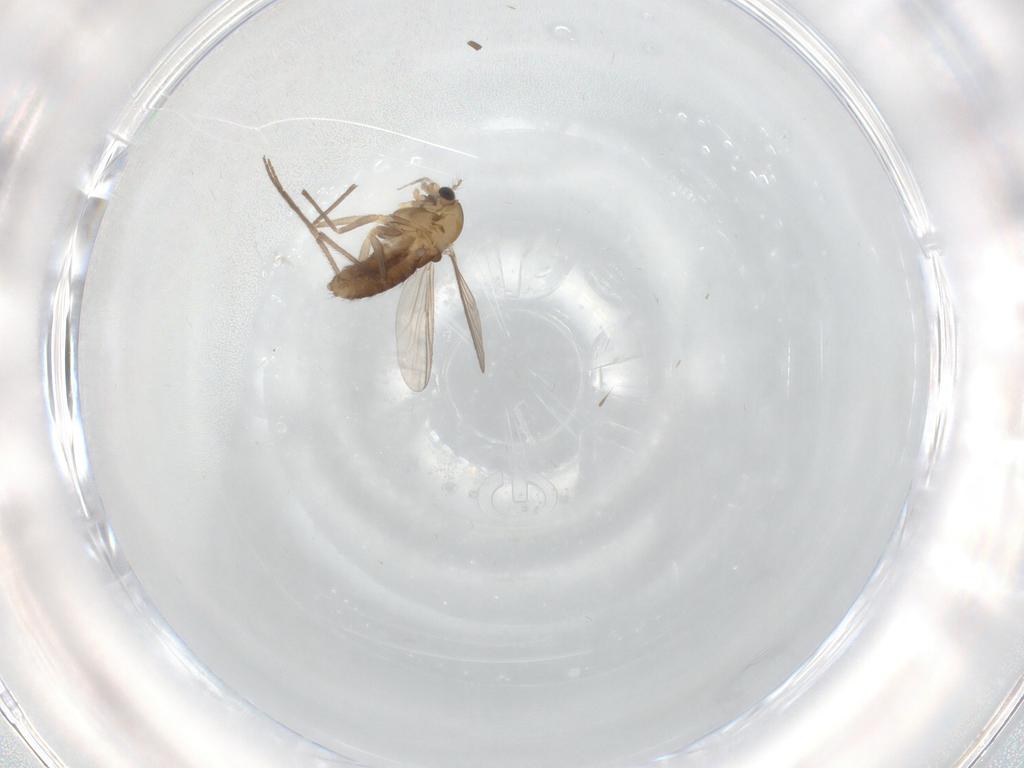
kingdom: Animalia
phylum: Arthropoda
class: Insecta
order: Diptera
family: Chironomidae
